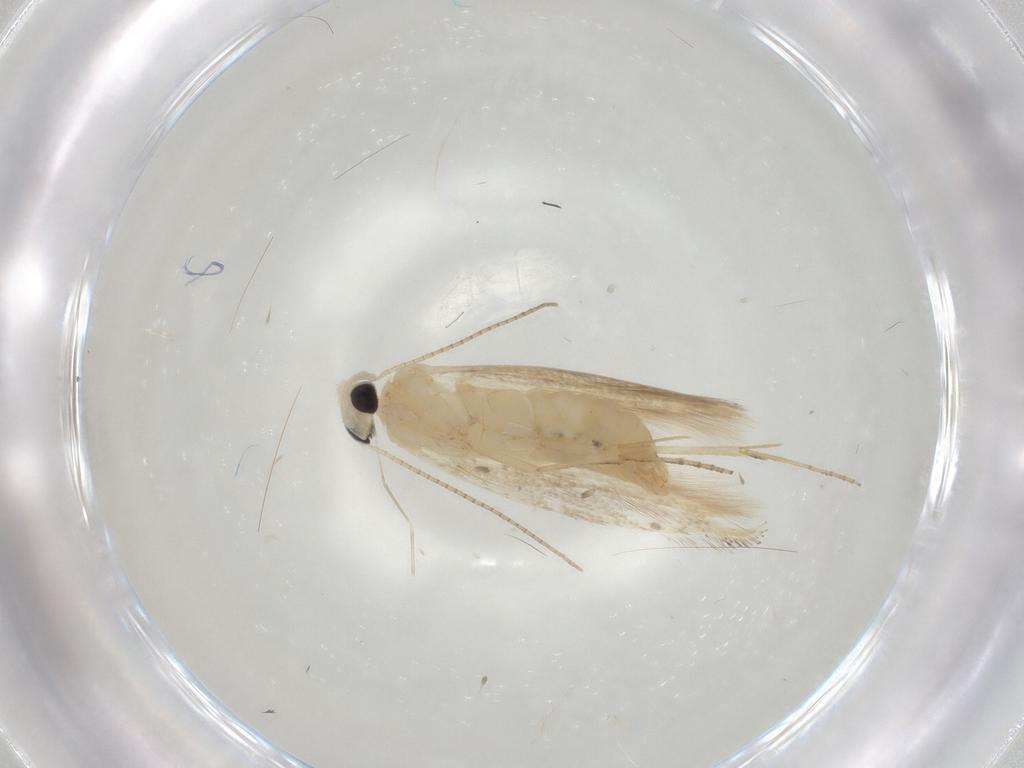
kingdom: Animalia
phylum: Arthropoda
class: Insecta
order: Lepidoptera
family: Bucculatricidae
